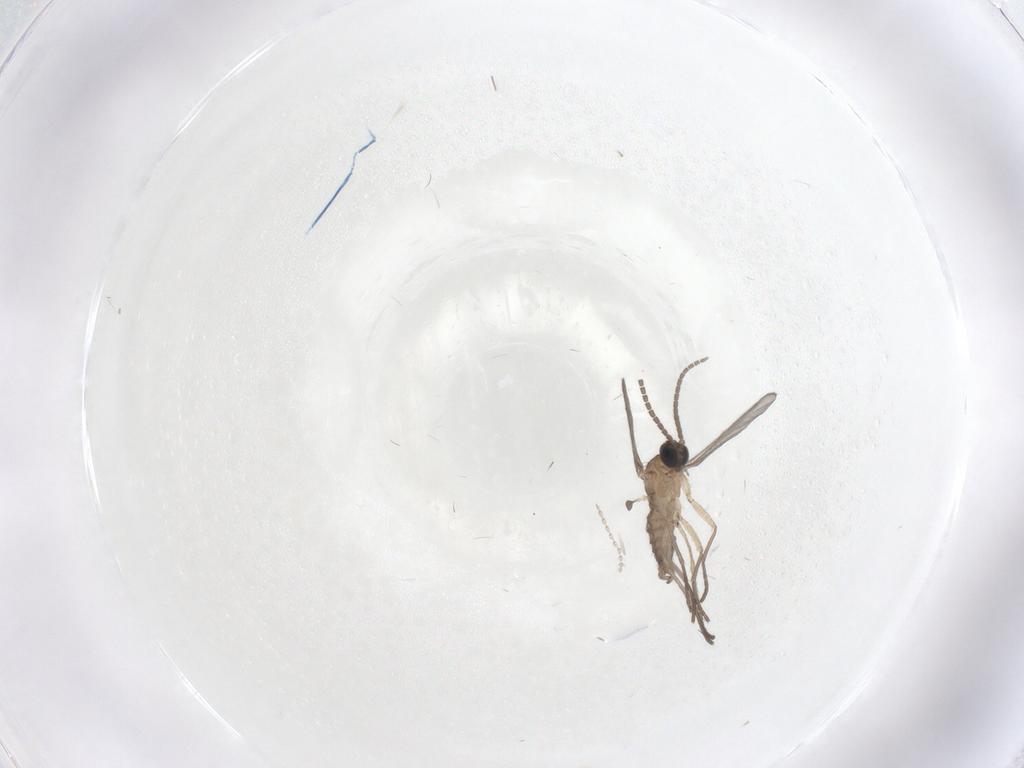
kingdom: Animalia
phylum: Arthropoda
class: Insecta
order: Diptera
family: Sciaridae
